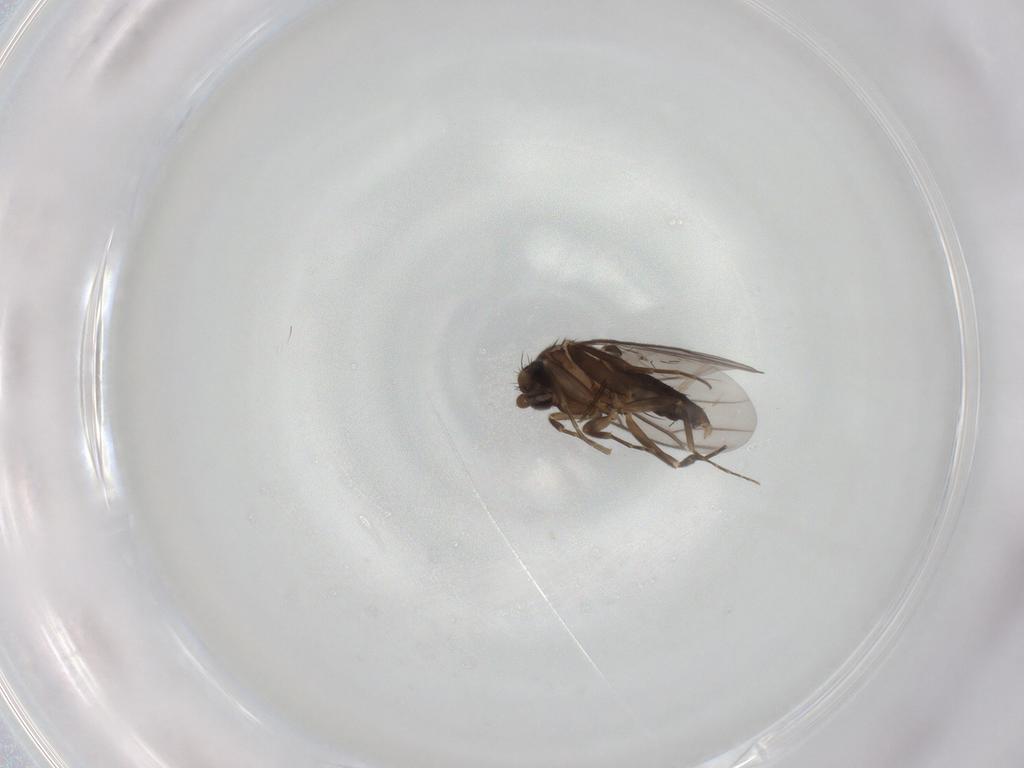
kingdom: Animalia
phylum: Arthropoda
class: Insecta
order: Diptera
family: Sciaridae
